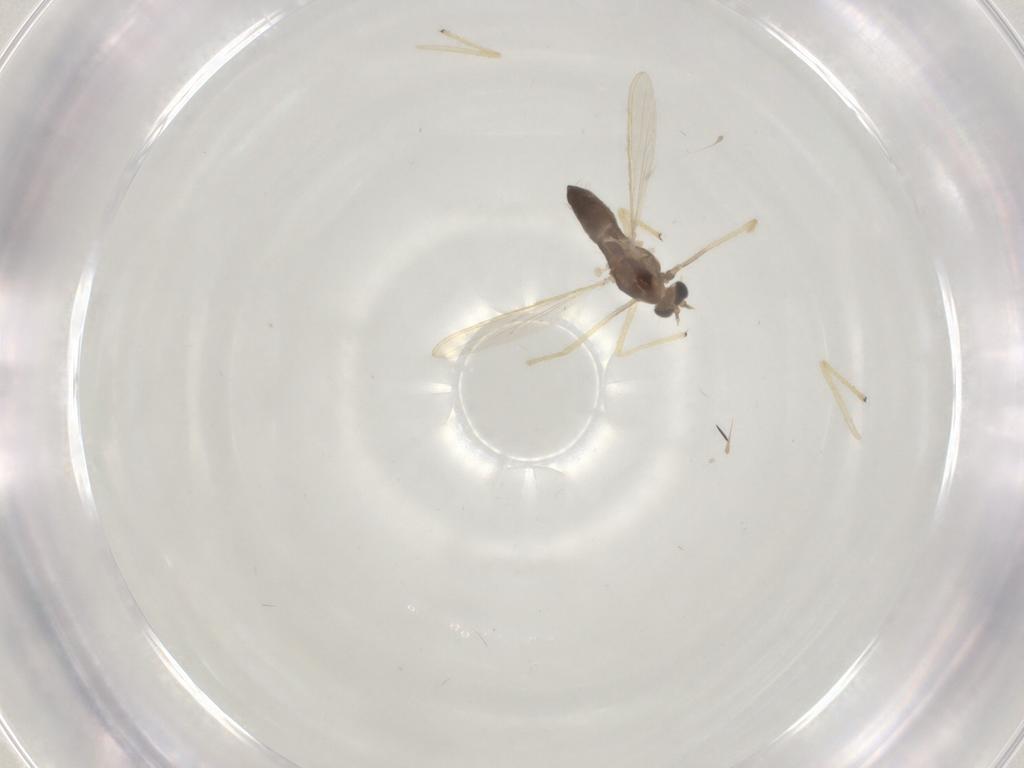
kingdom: Animalia
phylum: Arthropoda
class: Insecta
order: Diptera
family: Chironomidae
